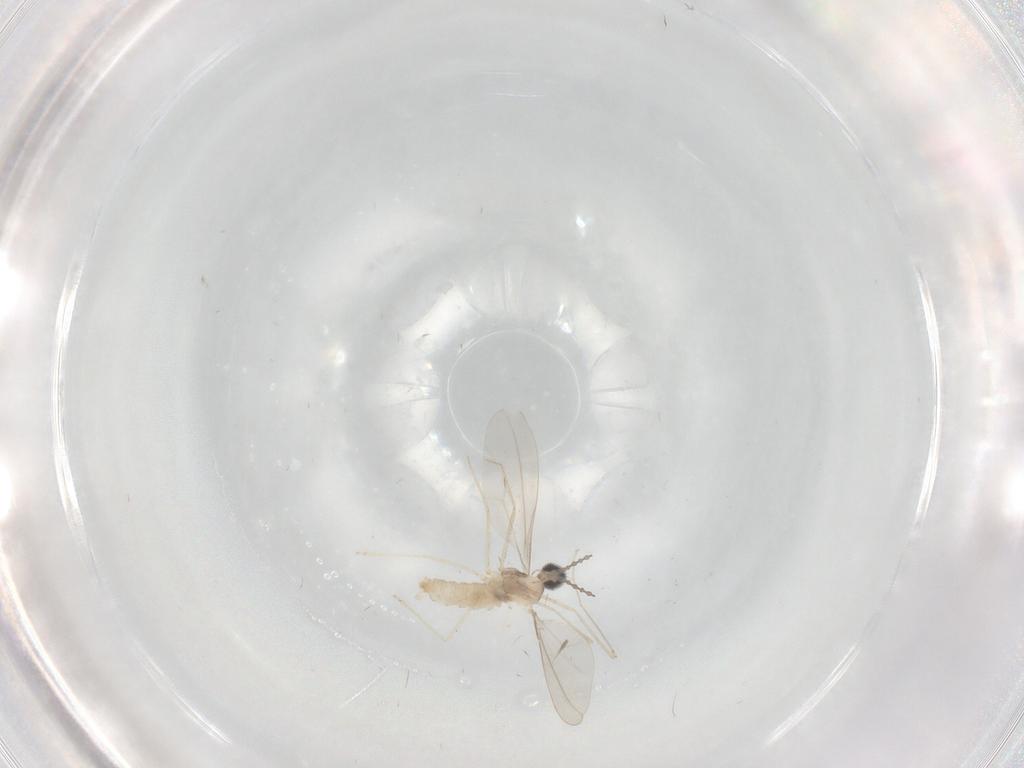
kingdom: Animalia
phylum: Arthropoda
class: Insecta
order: Diptera
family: Cecidomyiidae
